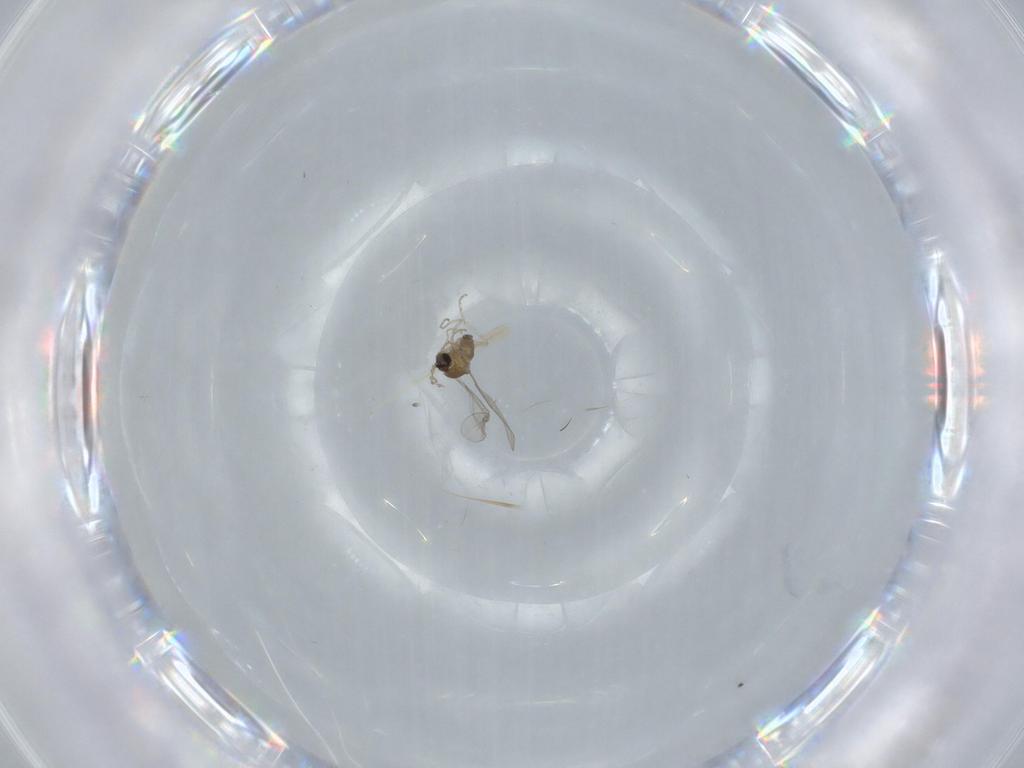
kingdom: Animalia
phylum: Arthropoda
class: Insecta
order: Diptera
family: Cecidomyiidae
